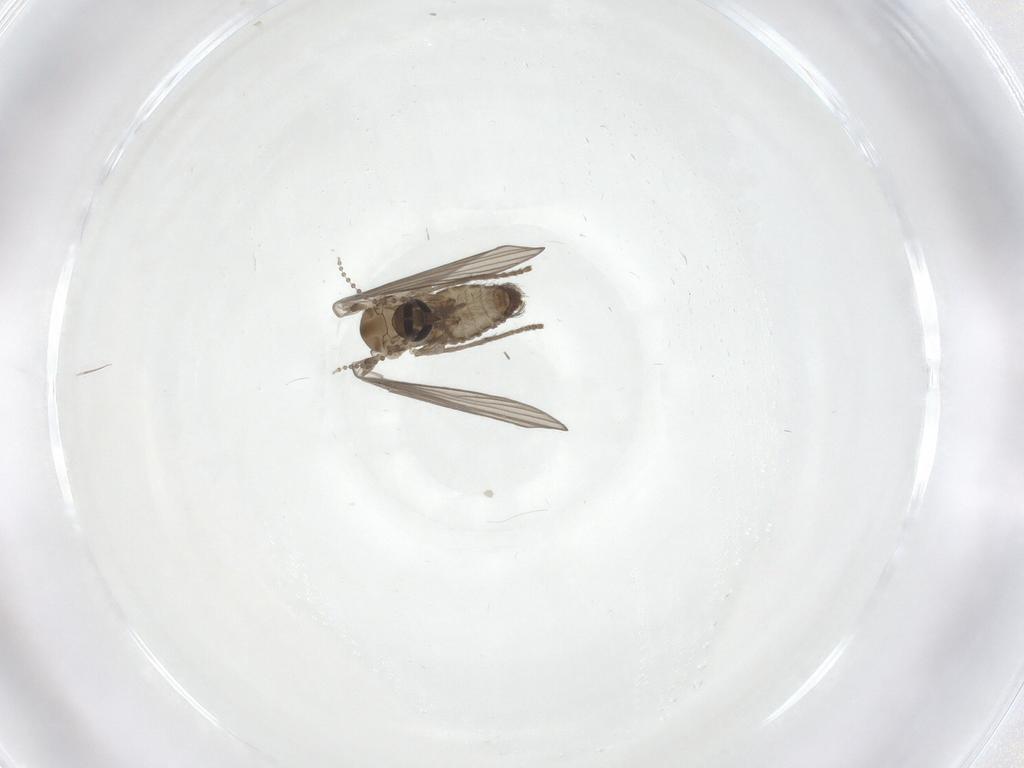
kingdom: Animalia
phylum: Arthropoda
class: Insecta
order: Diptera
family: Psychodidae
